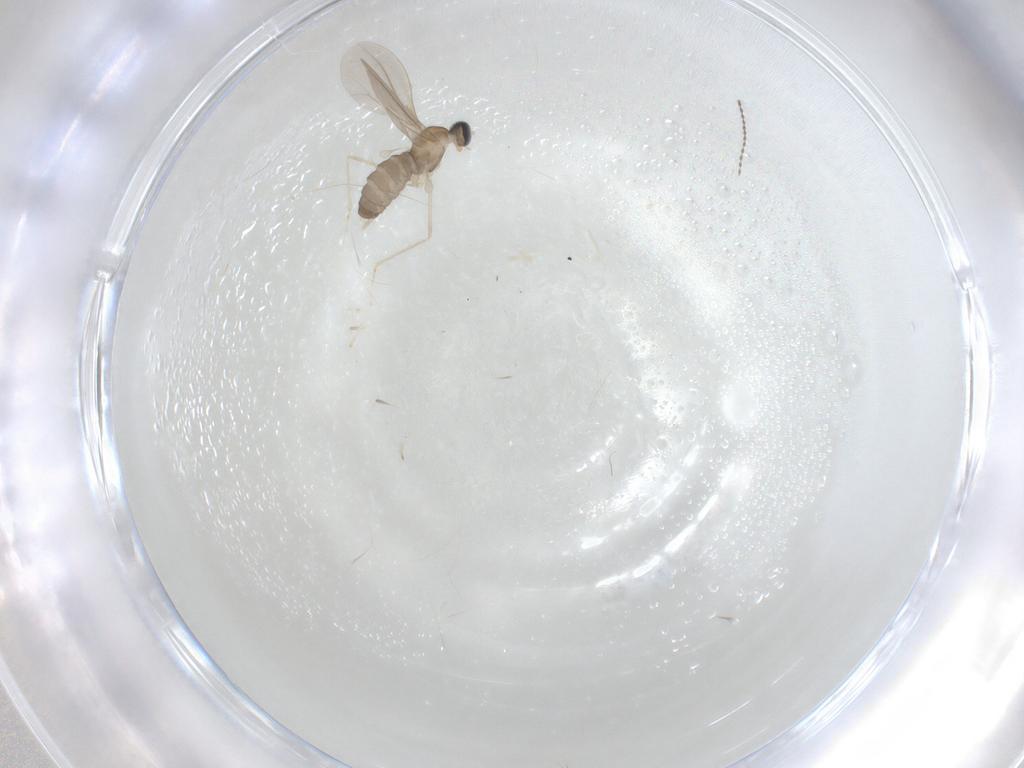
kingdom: Animalia
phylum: Arthropoda
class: Insecta
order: Diptera
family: Cecidomyiidae
